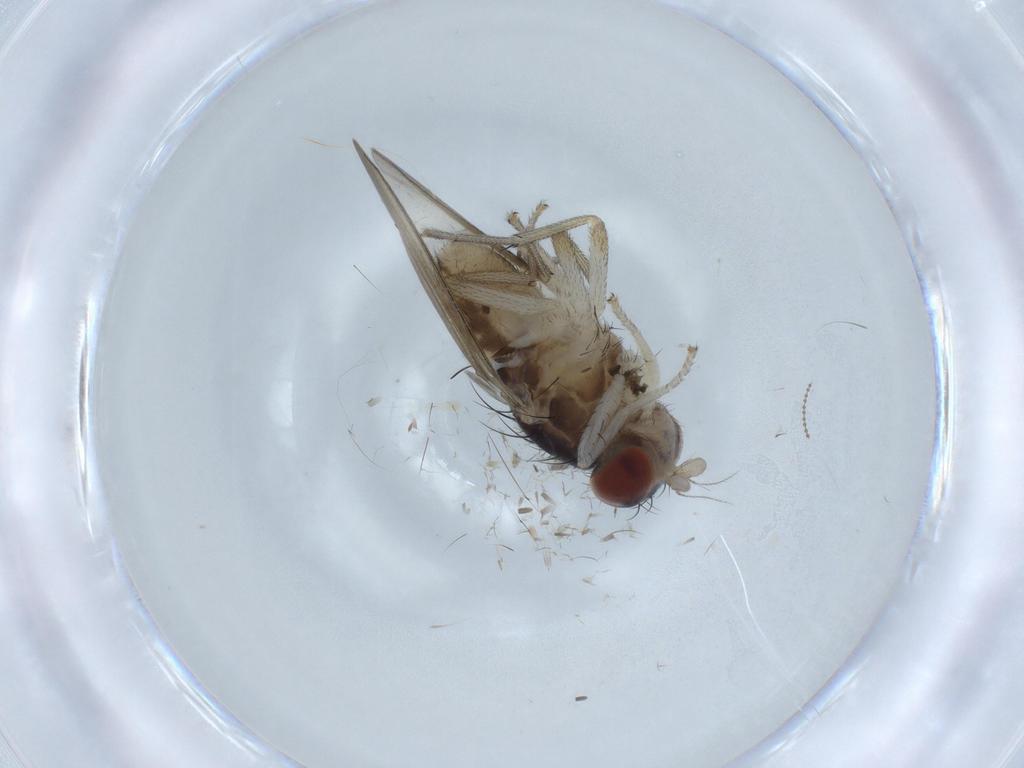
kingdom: Animalia
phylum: Arthropoda
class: Insecta
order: Diptera
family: Lauxaniidae
